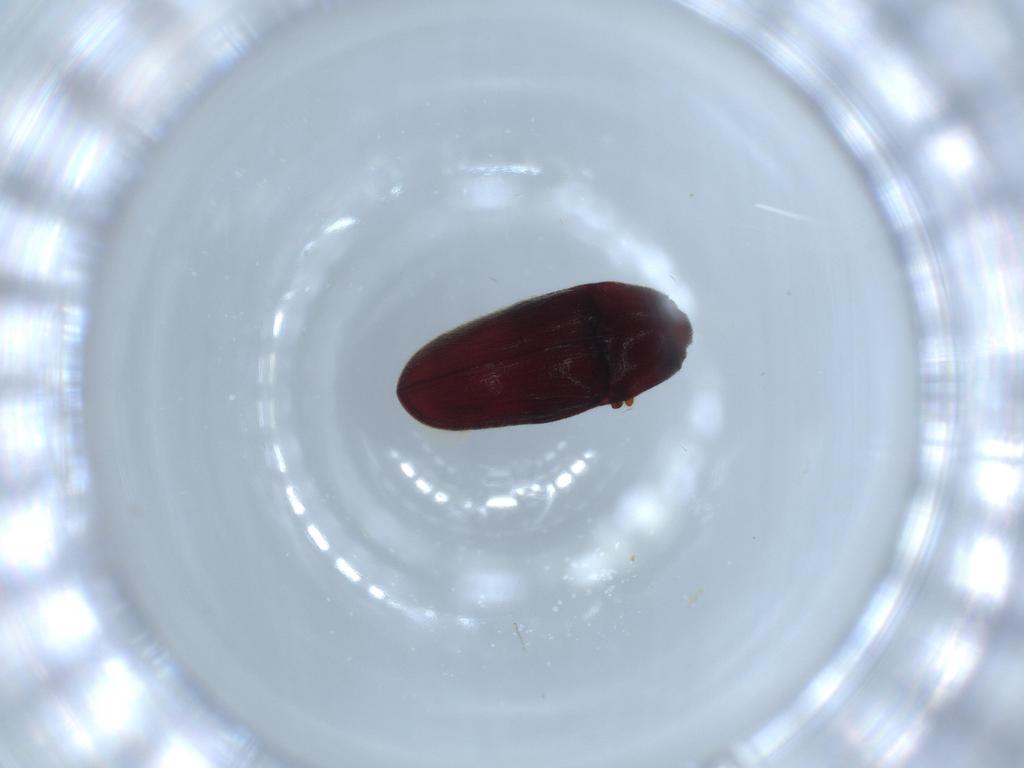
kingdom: Animalia
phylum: Arthropoda
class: Insecta
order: Coleoptera
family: Throscidae
